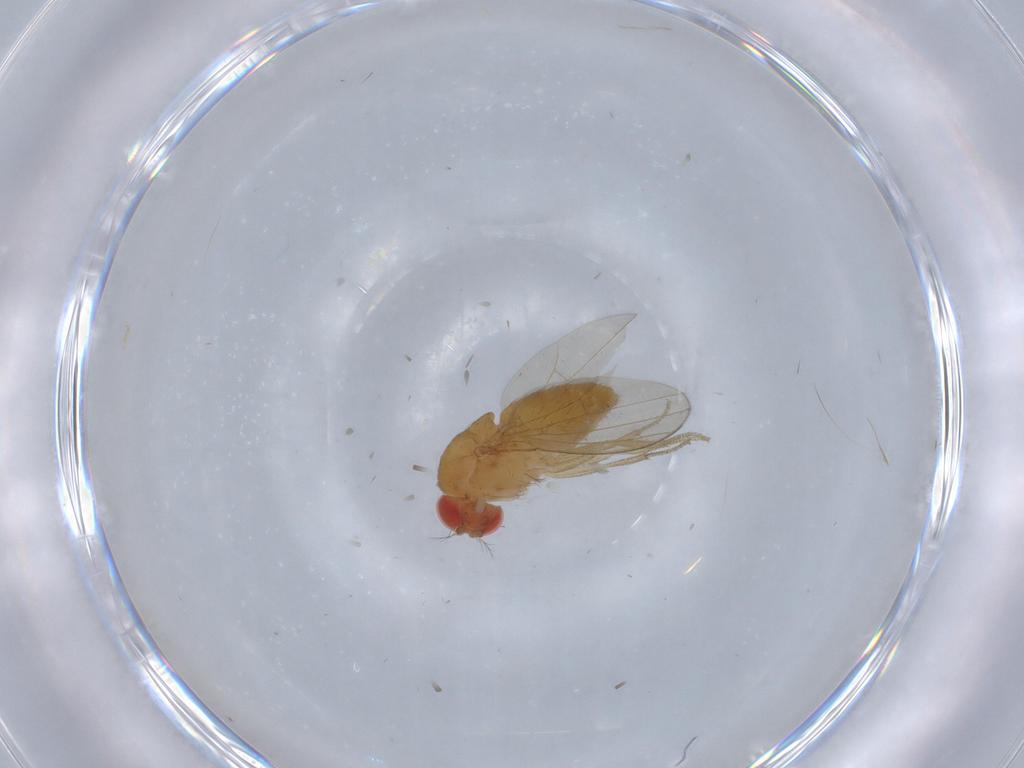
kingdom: Animalia
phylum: Arthropoda
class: Insecta
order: Diptera
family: Drosophilidae
